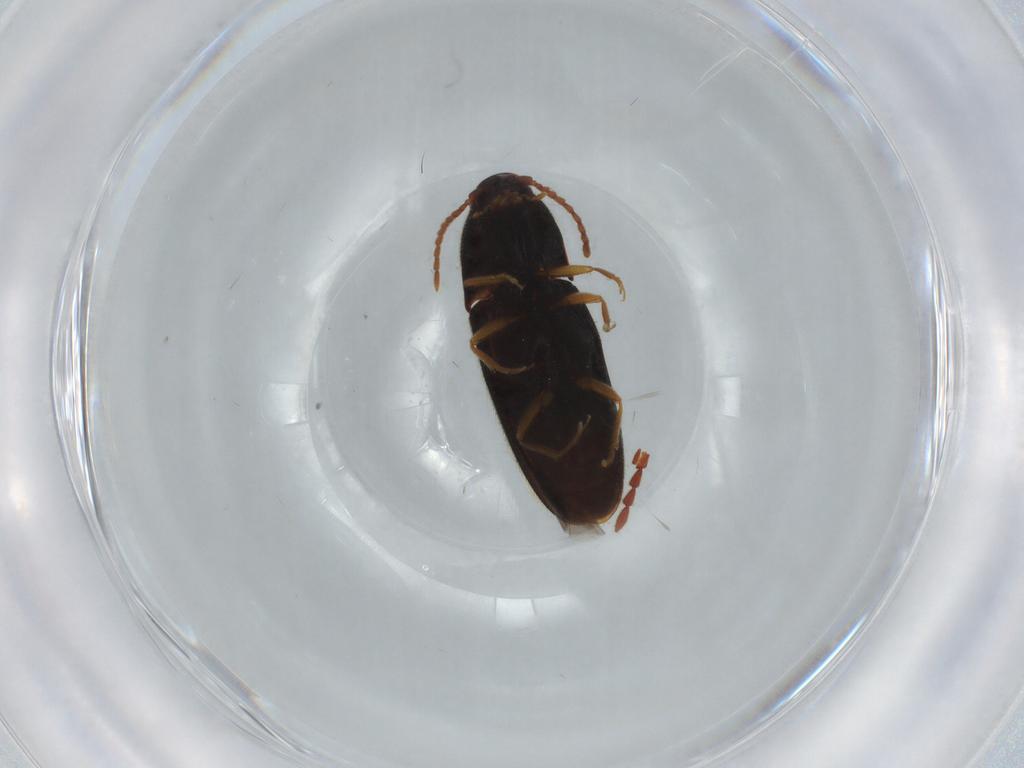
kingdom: Animalia
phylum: Arthropoda
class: Insecta
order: Coleoptera
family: Ptinidae
